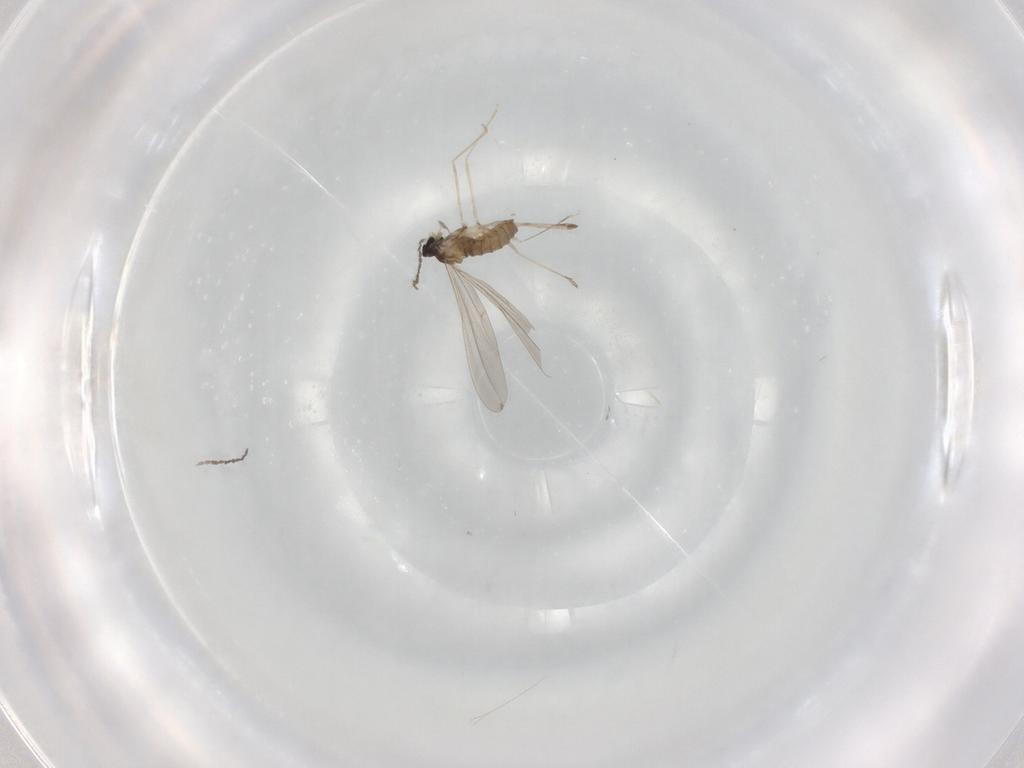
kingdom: Animalia
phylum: Arthropoda
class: Insecta
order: Diptera
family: Cecidomyiidae
